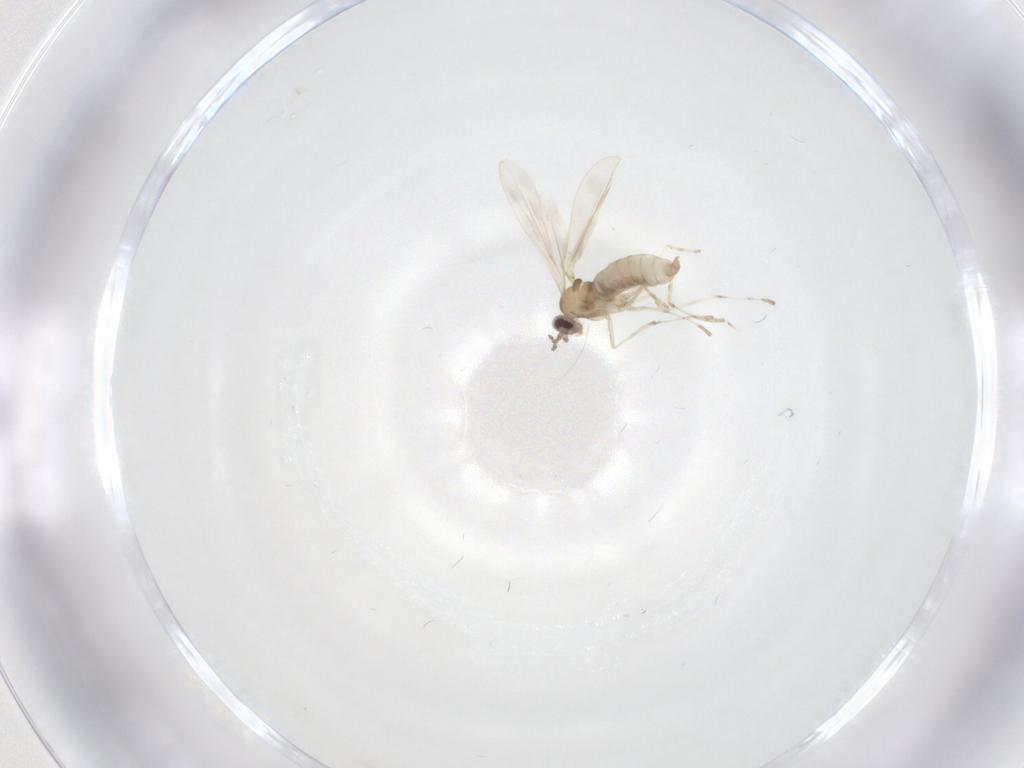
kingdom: Animalia
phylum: Arthropoda
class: Insecta
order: Diptera
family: Cecidomyiidae
